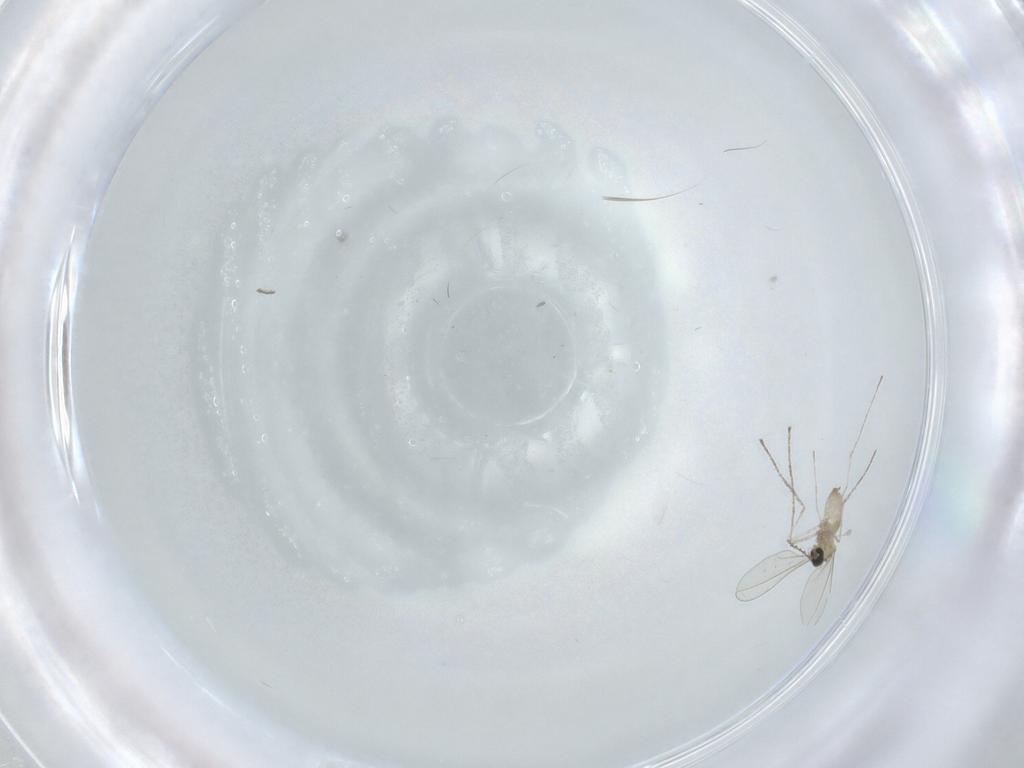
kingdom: Animalia
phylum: Arthropoda
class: Insecta
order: Diptera
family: Cecidomyiidae
